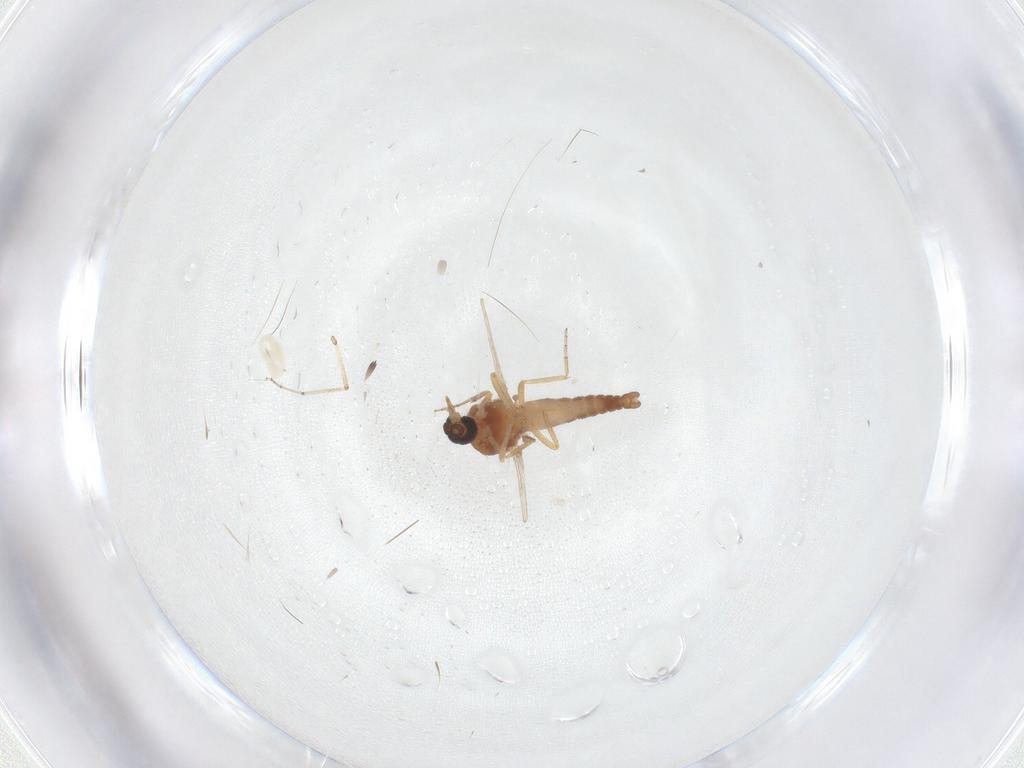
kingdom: Animalia
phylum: Arthropoda
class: Insecta
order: Diptera
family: Ceratopogonidae
